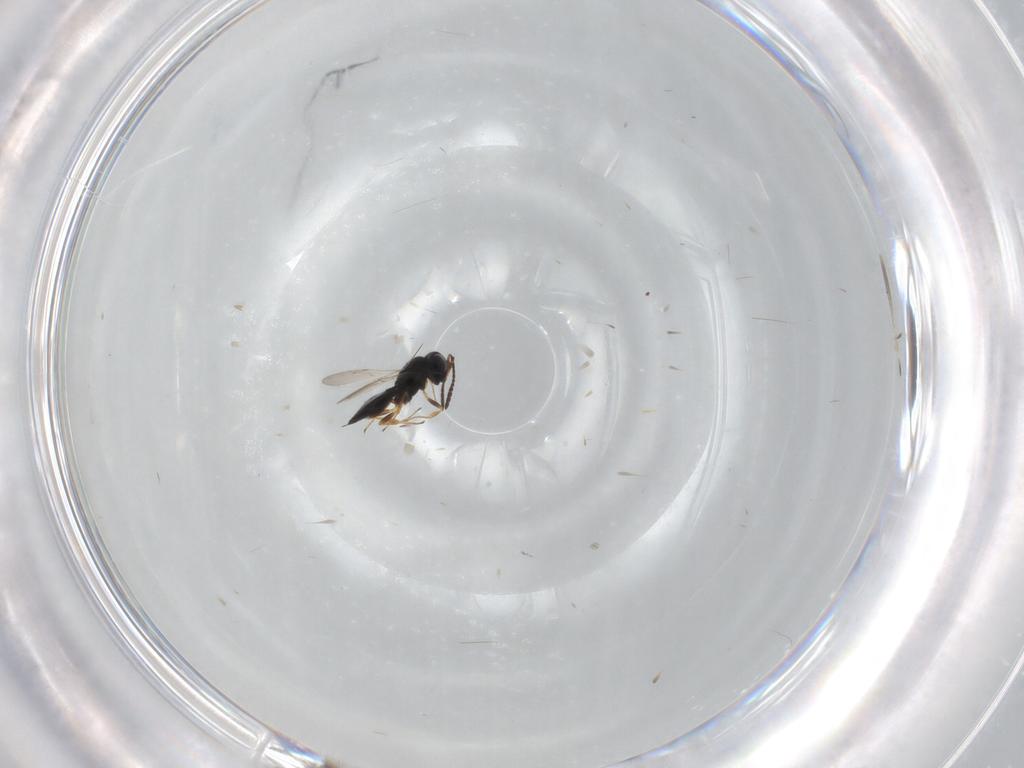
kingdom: Animalia
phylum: Arthropoda
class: Insecta
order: Hymenoptera
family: Scelionidae
